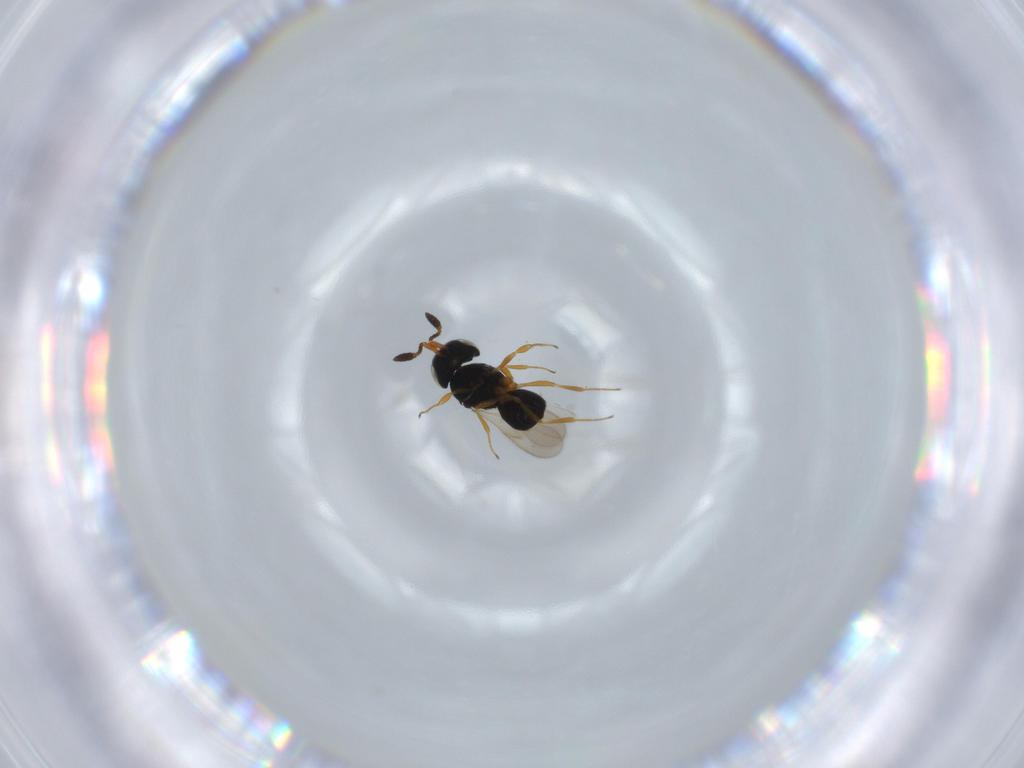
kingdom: Animalia
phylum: Arthropoda
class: Insecta
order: Hymenoptera
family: Scelionidae
